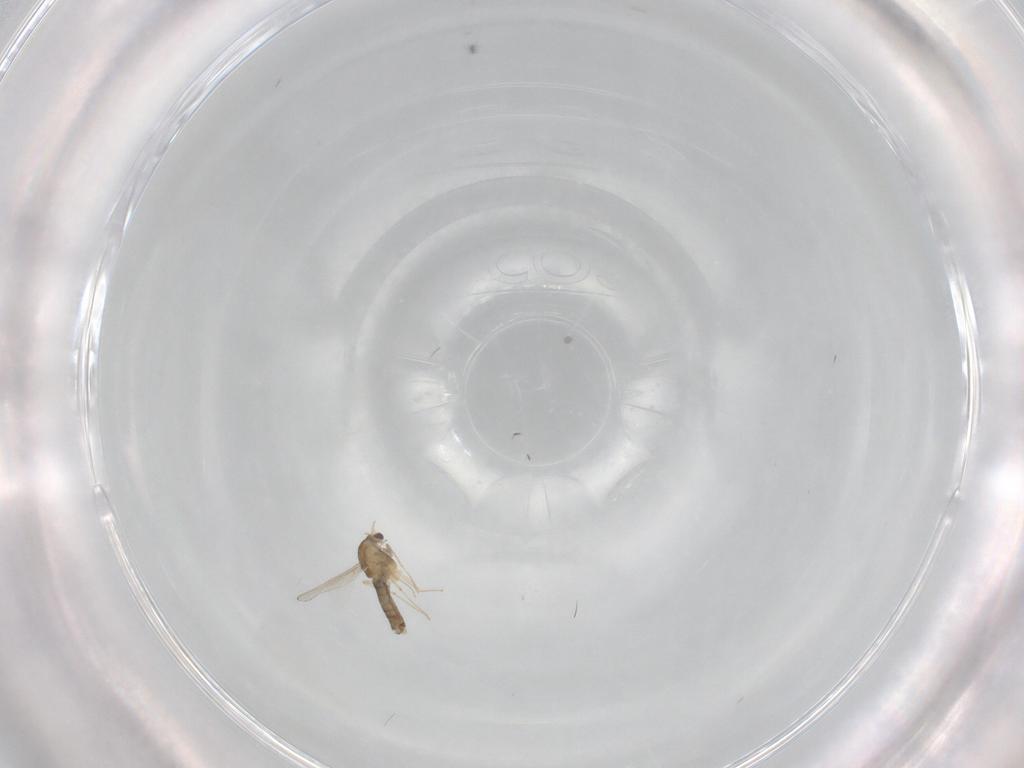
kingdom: Animalia
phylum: Arthropoda
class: Insecta
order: Diptera
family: Chironomidae
